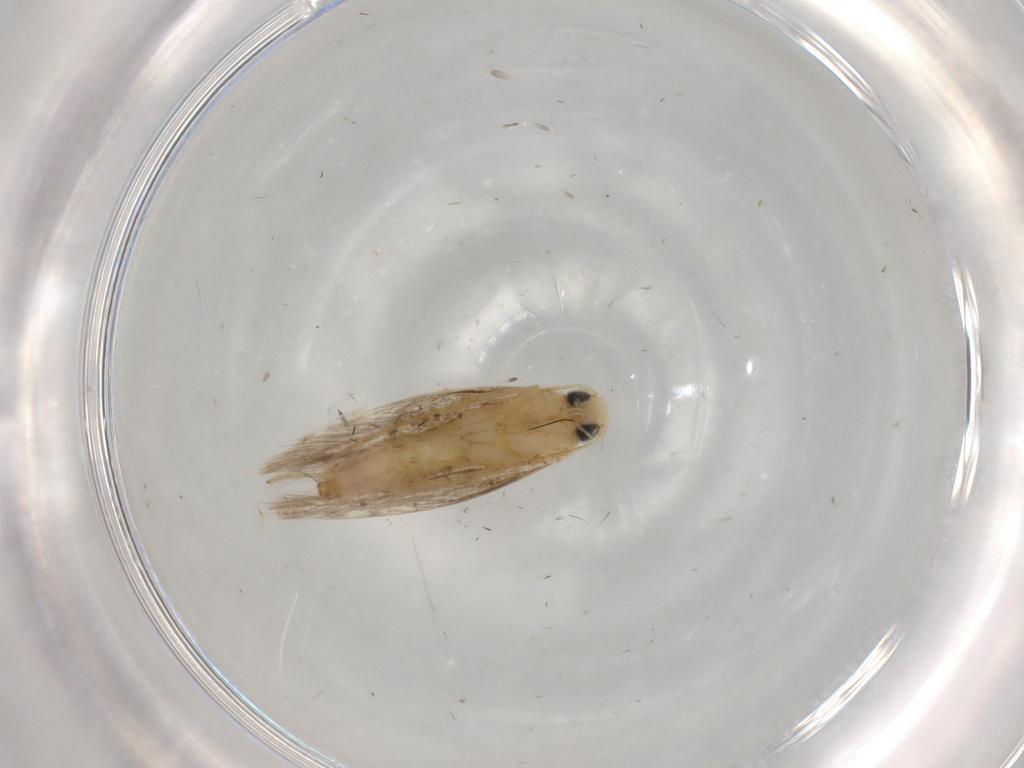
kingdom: Animalia
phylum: Arthropoda
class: Insecta
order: Lepidoptera
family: Tischeriidae
